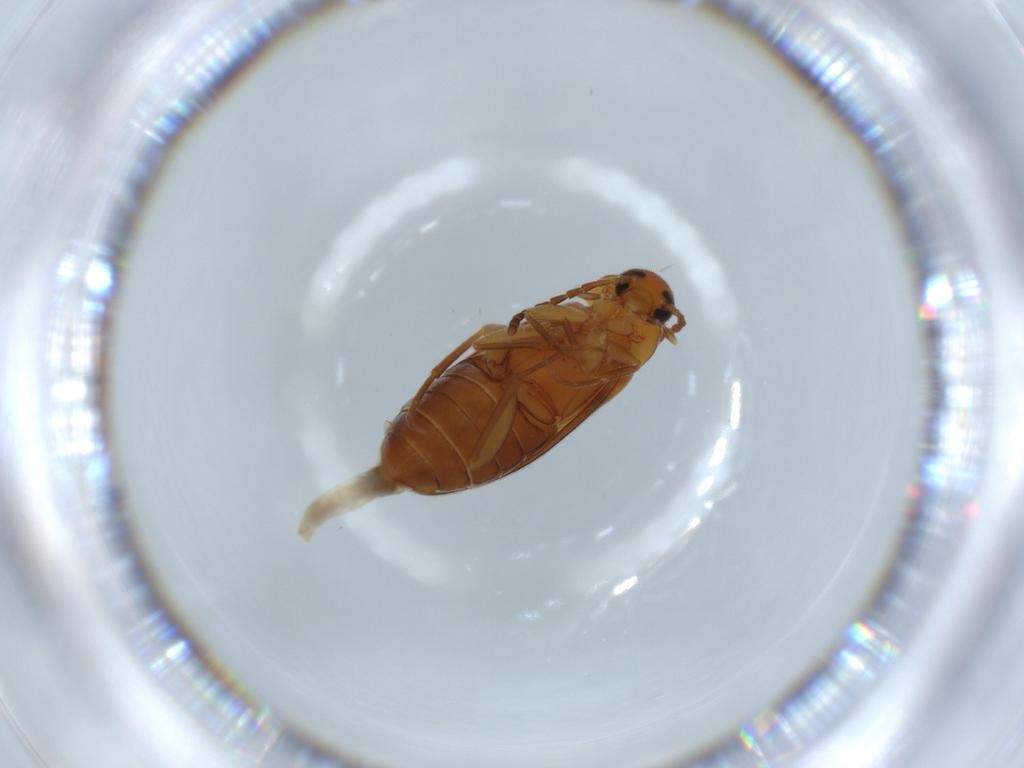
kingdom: Animalia
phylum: Arthropoda
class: Insecta
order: Coleoptera
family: Scraptiidae
